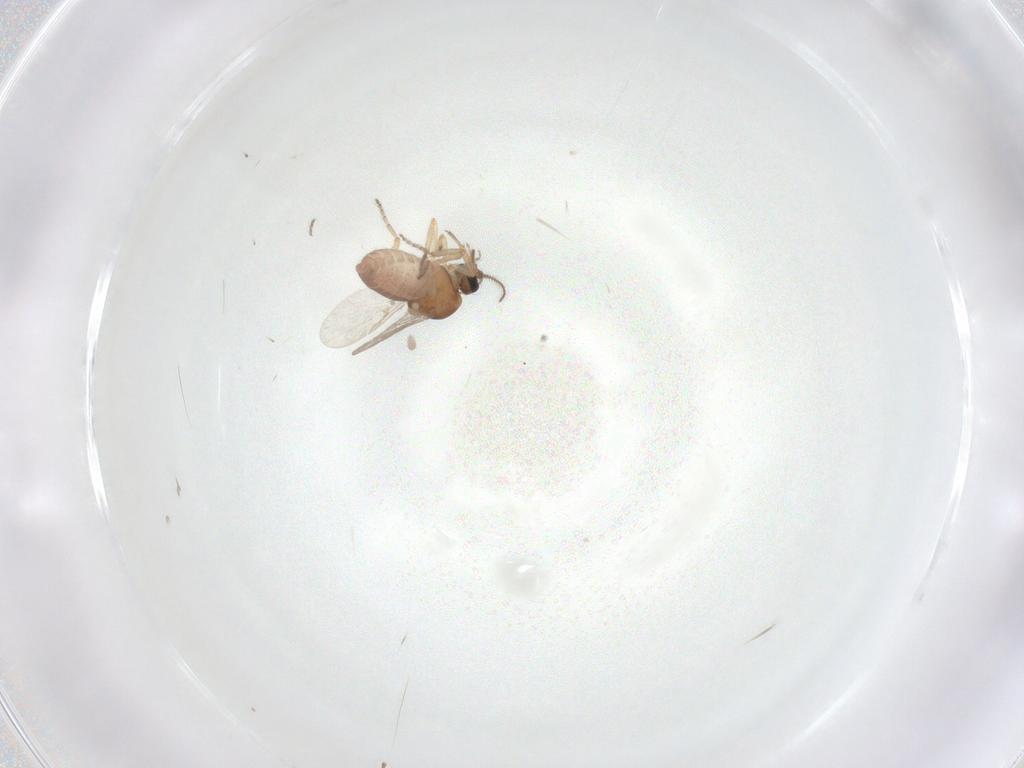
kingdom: Animalia
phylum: Arthropoda
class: Insecta
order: Diptera
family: Ceratopogonidae
